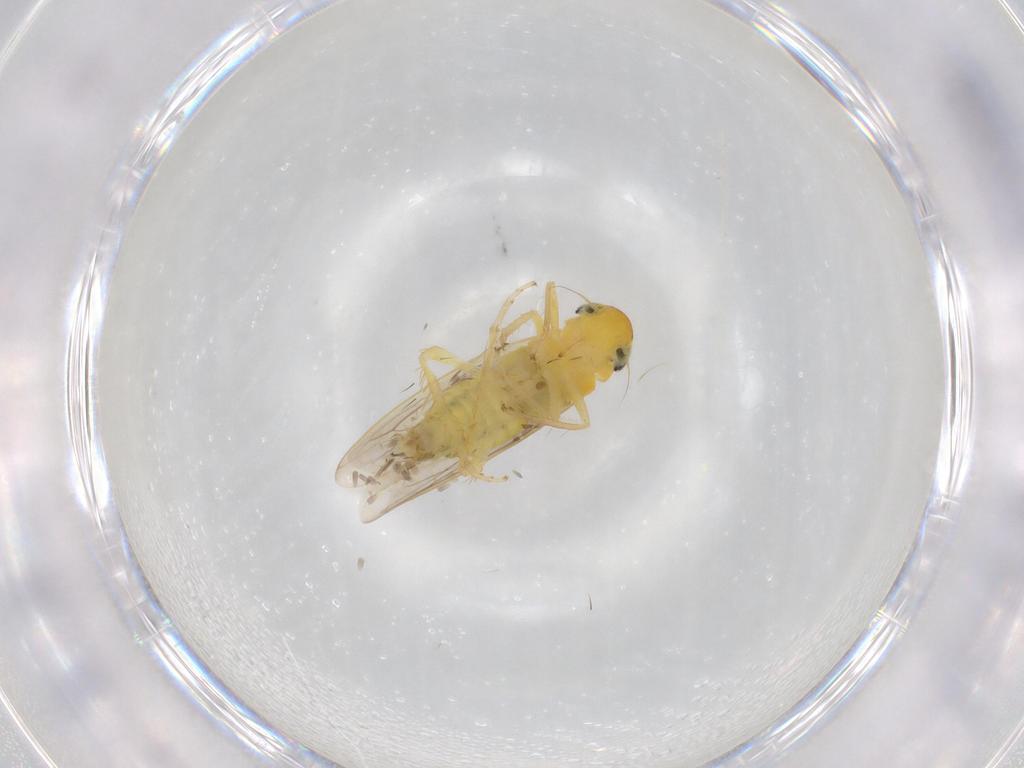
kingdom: Animalia
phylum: Arthropoda
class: Insecta
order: Hemiptera
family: Cicadellidae
